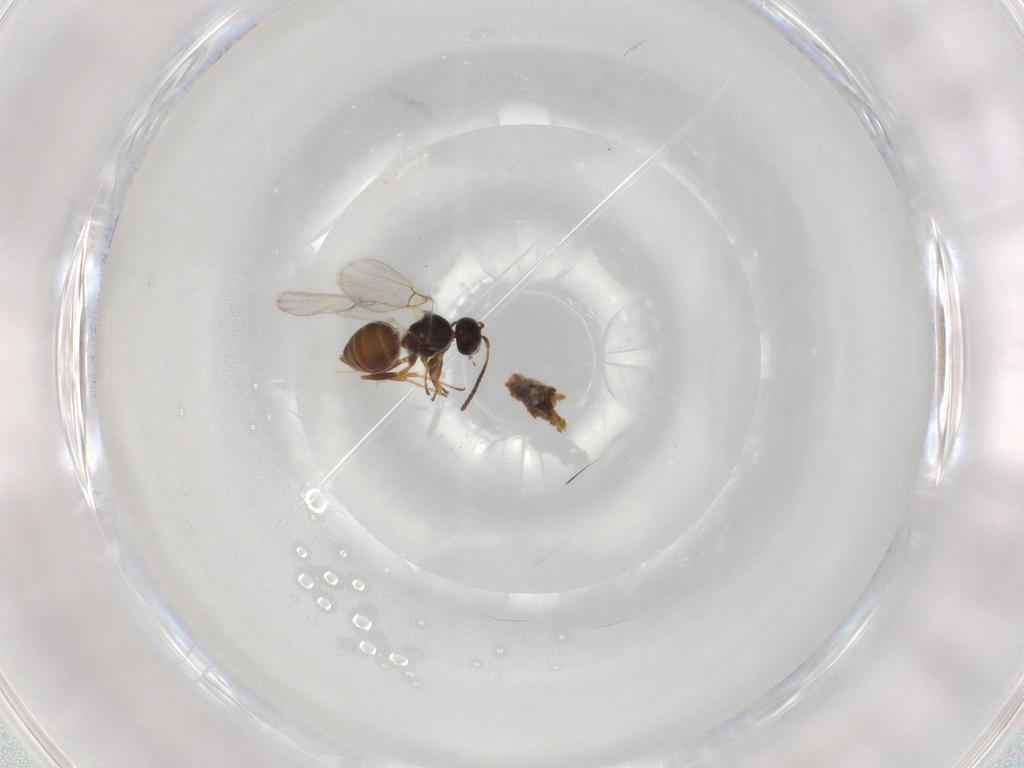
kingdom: Animalia
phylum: Arthropoda
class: Insecta
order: Hymenoptera
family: Figitidae
